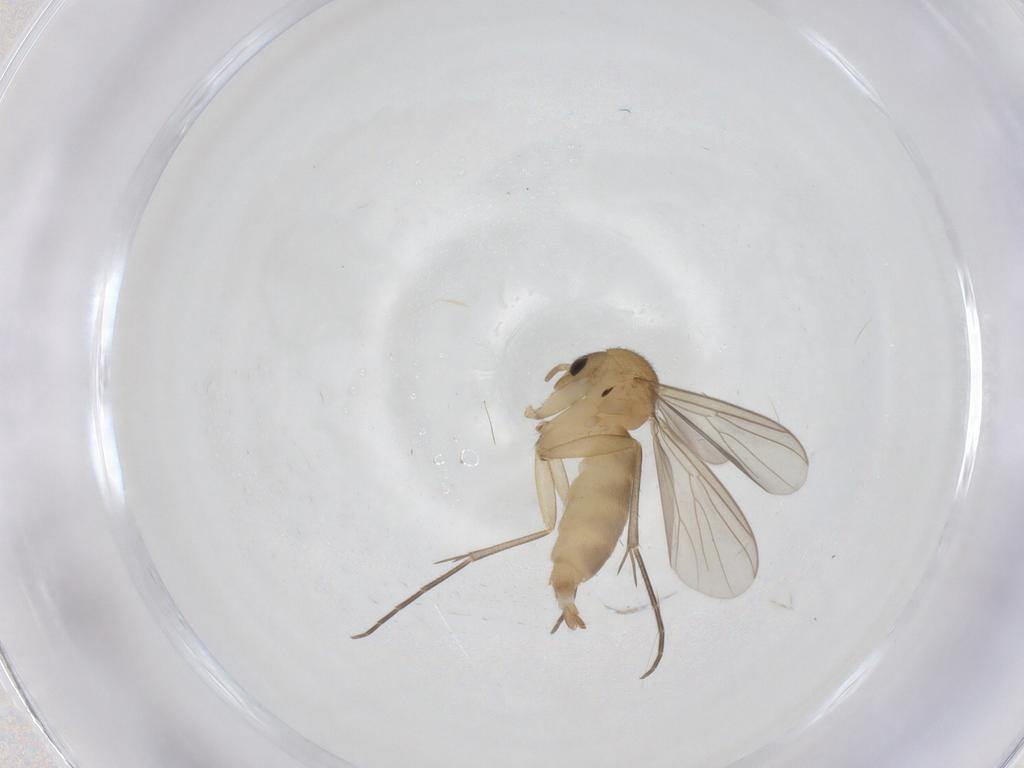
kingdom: Animalia
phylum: Arthropoda
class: Insecta
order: Diptera
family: Mycetophilidae
